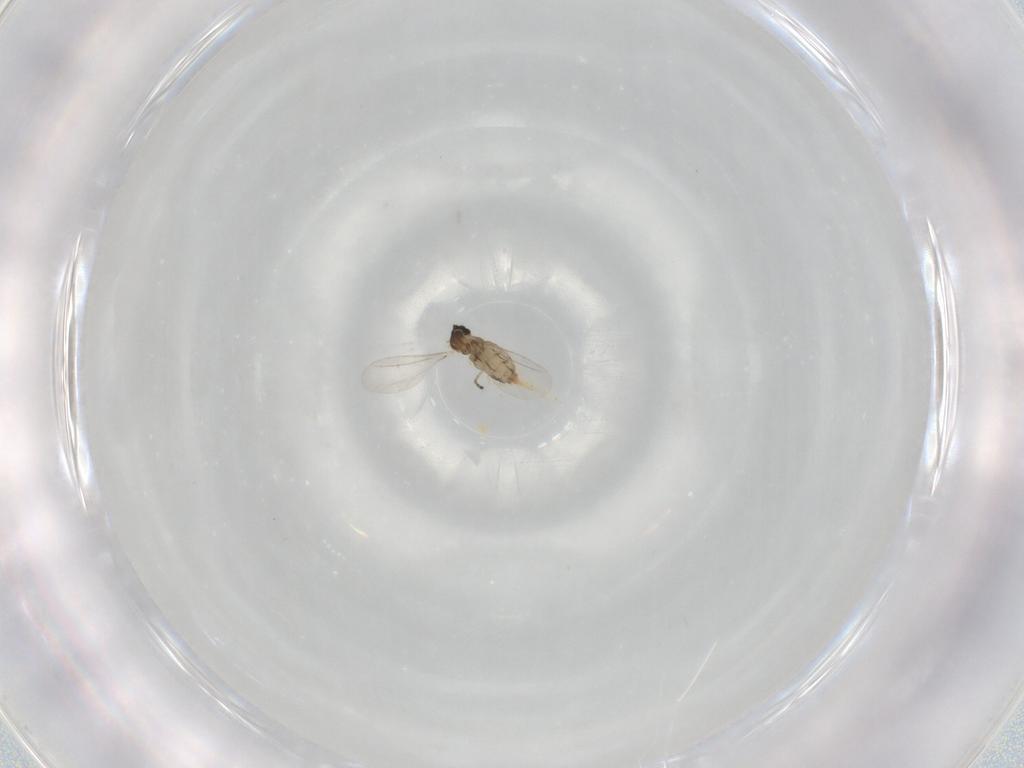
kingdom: Animalia
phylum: Arthropoda
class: Insecta
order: Diptera
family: Cecidomyiidae
